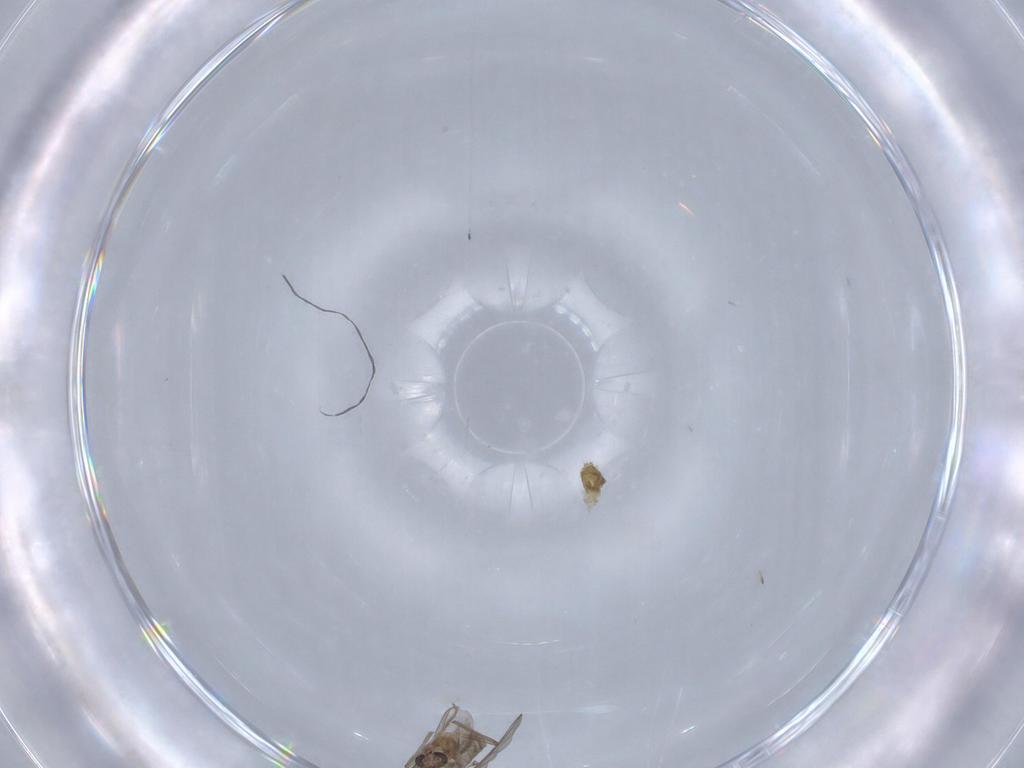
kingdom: Animalia
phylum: Arthropoda
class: Insecta
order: Diptera
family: Chironomidae
